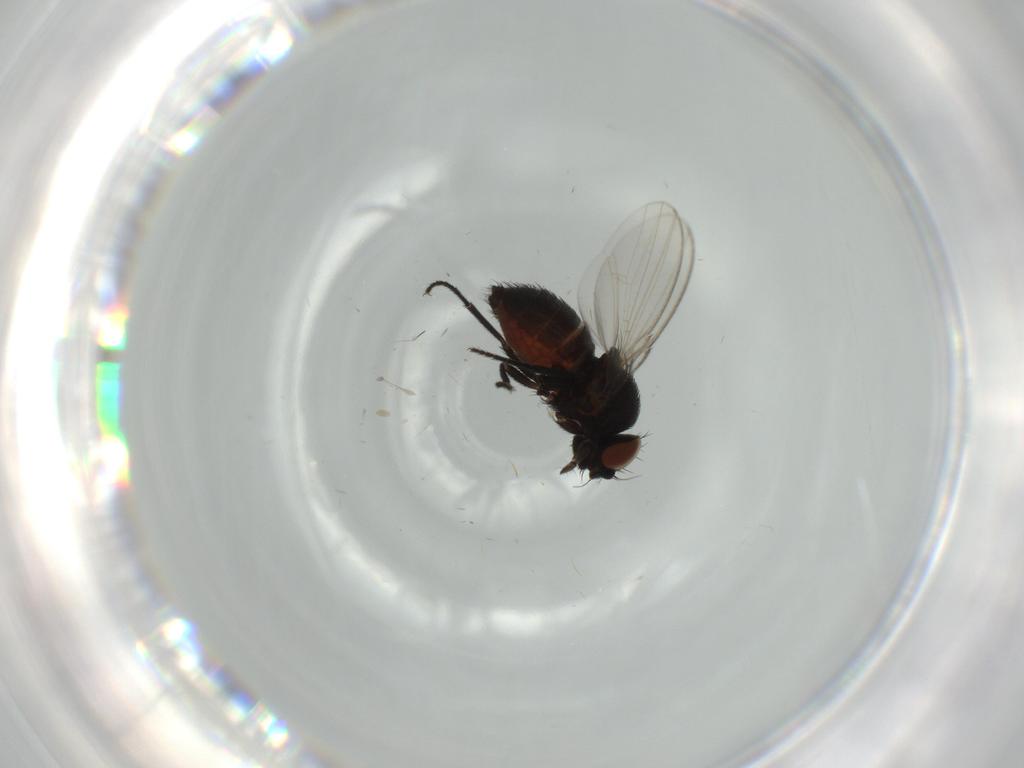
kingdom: Animalia
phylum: Arthropoda
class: Insecta
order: Diptera
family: Milichiidae
